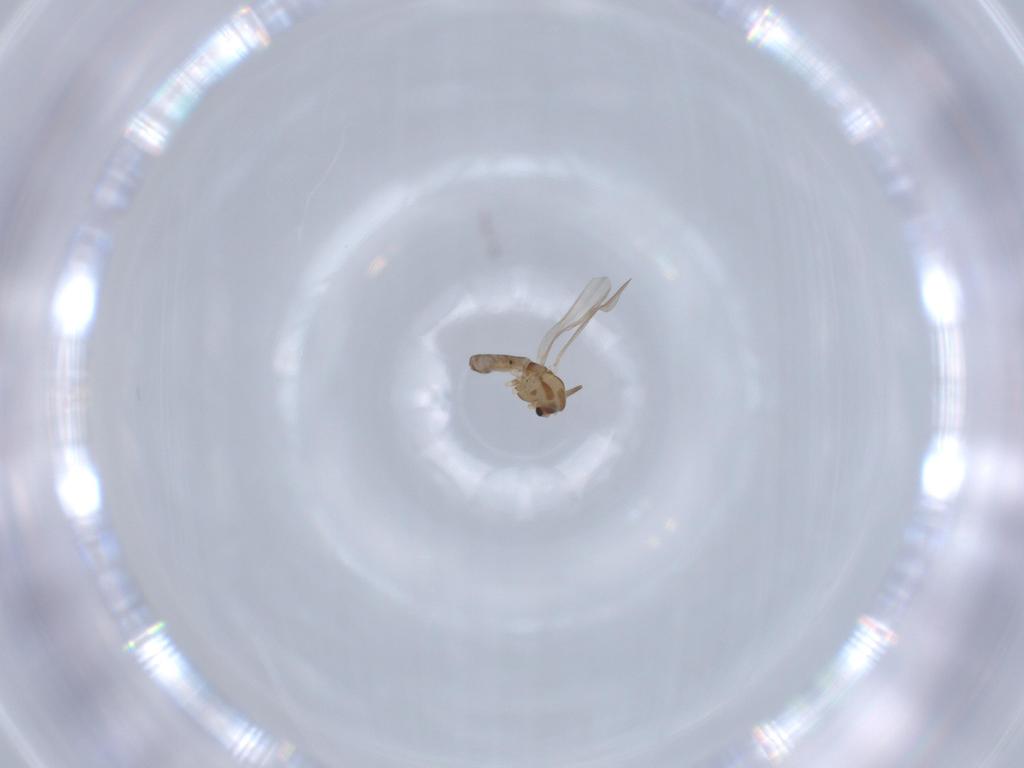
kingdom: Animalia
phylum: Arthropoda
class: Insecta
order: Diptera
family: Chironomidae
